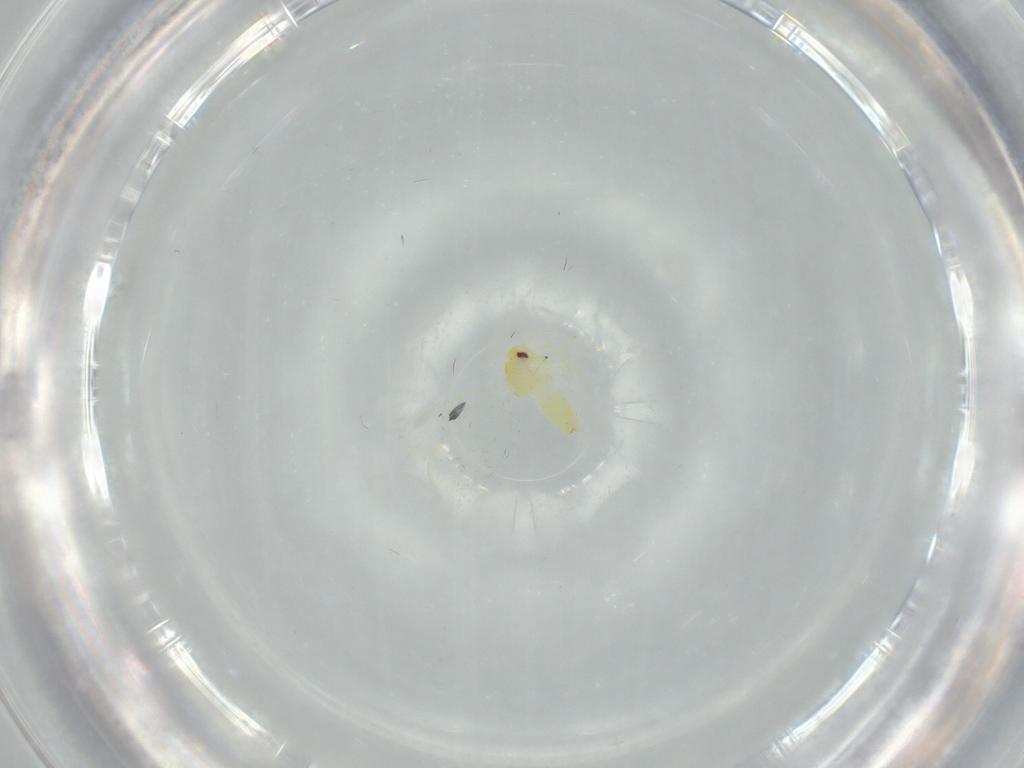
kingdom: Animalia
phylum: Arthropoda
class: Insecta
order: Hemiptera
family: Aleyrodidae
